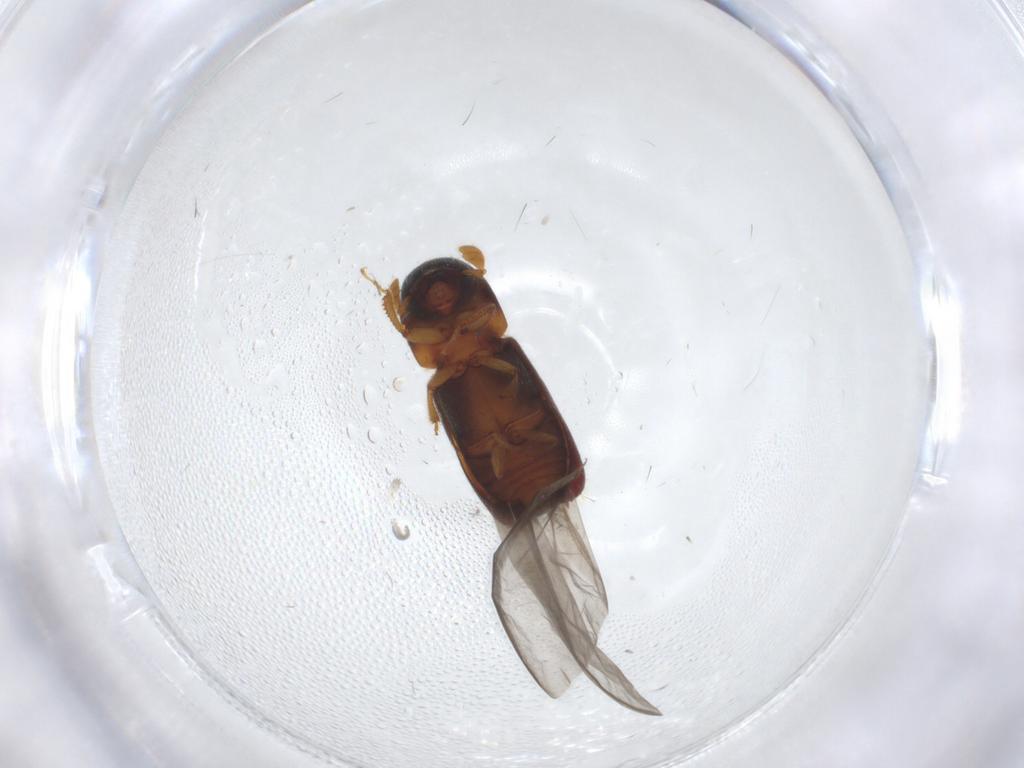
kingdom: Animalia
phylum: Arthropoda
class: Insecta
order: Coleoptera
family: Curculionidae
